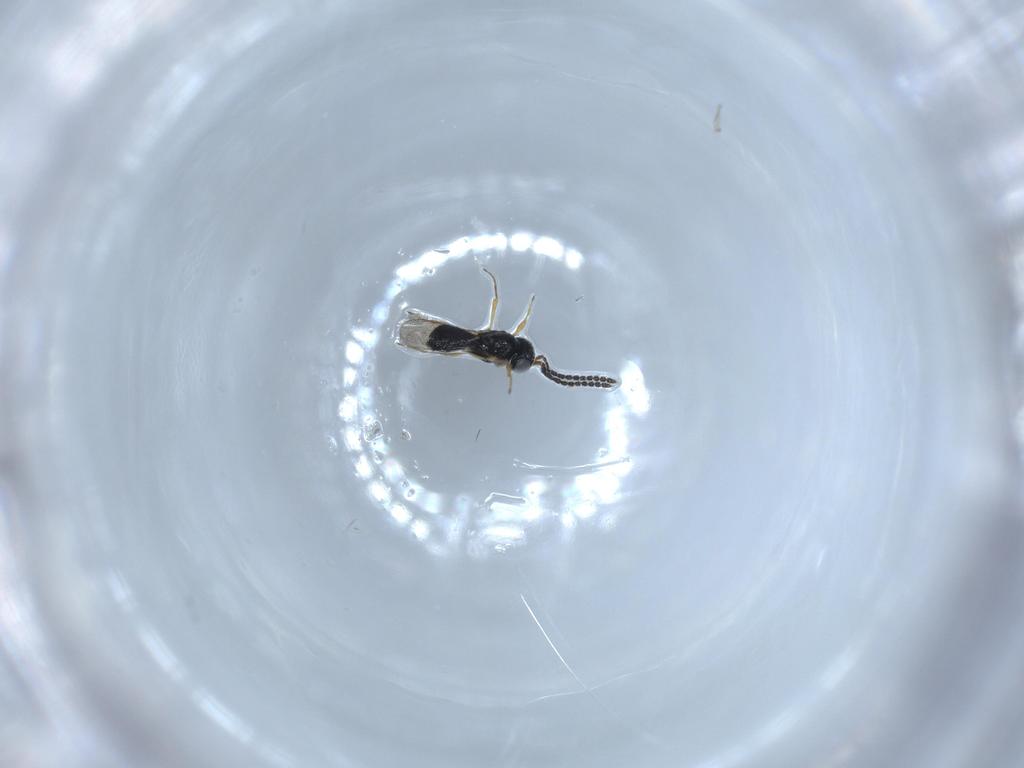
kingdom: Animalia
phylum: Arthropoda
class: Insecta
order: Hymenoptera
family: Scelionidae
